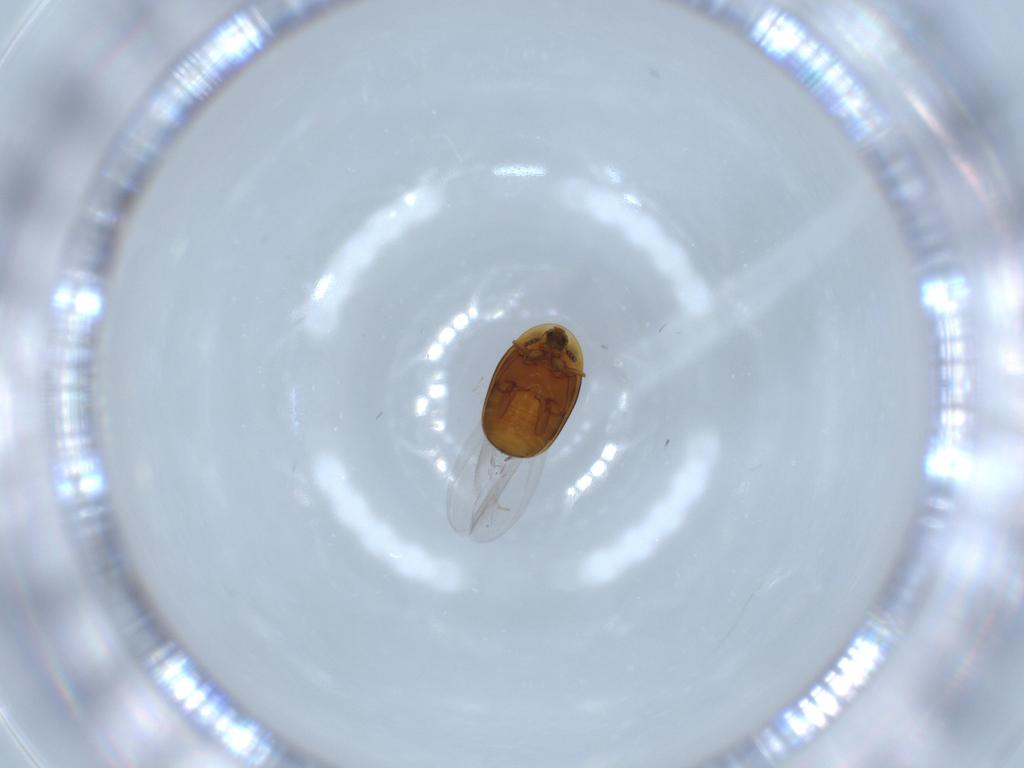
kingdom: Animalia
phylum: Arthropoda
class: Insecta
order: Coleoptera
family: Corylophidae
